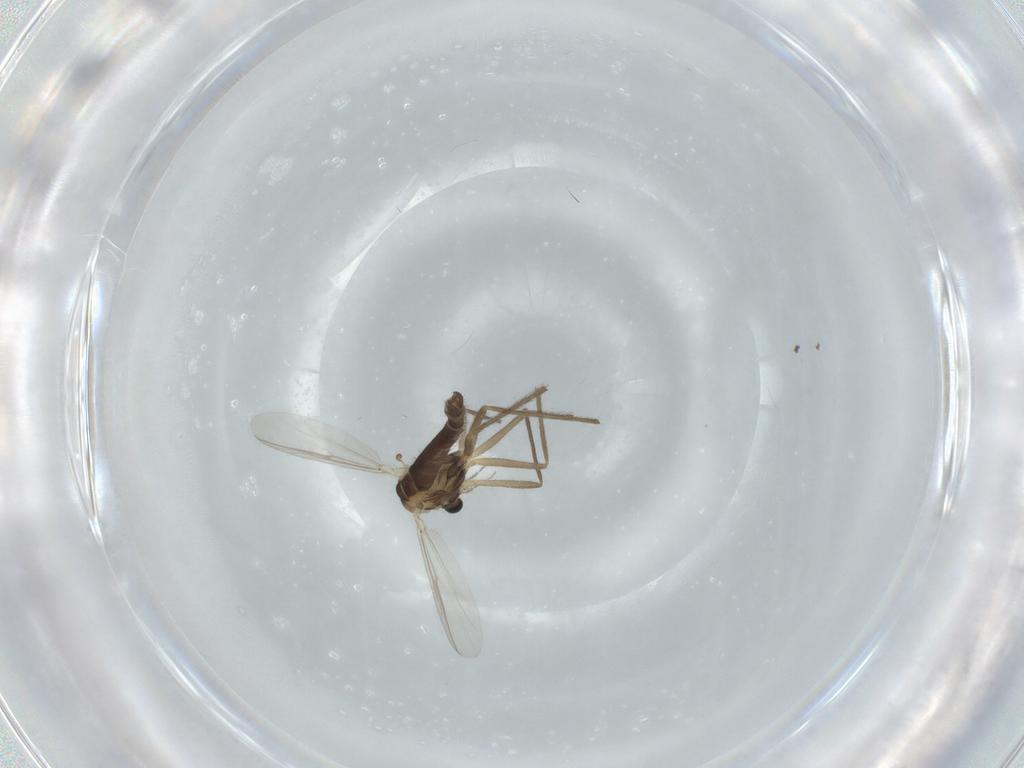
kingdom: Animalia
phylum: Arthropoda
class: Insecta
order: Diptera
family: Chironomidae
